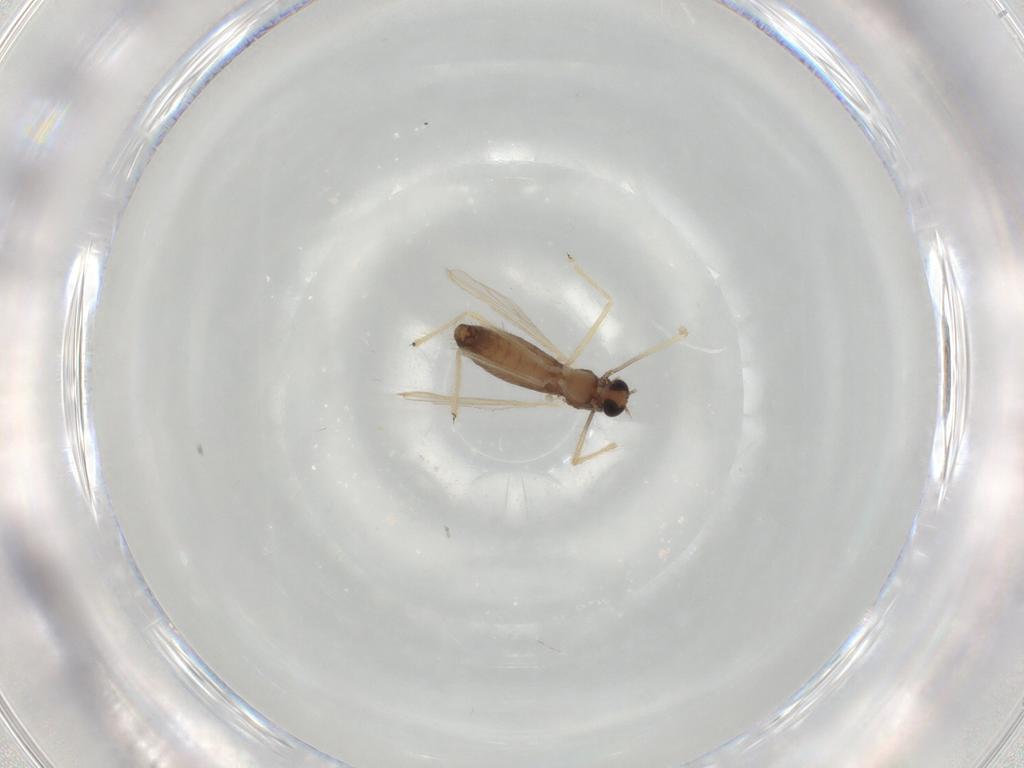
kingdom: Animalia
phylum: Arthropoda
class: Insecta
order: Diptera
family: Chironomidae
